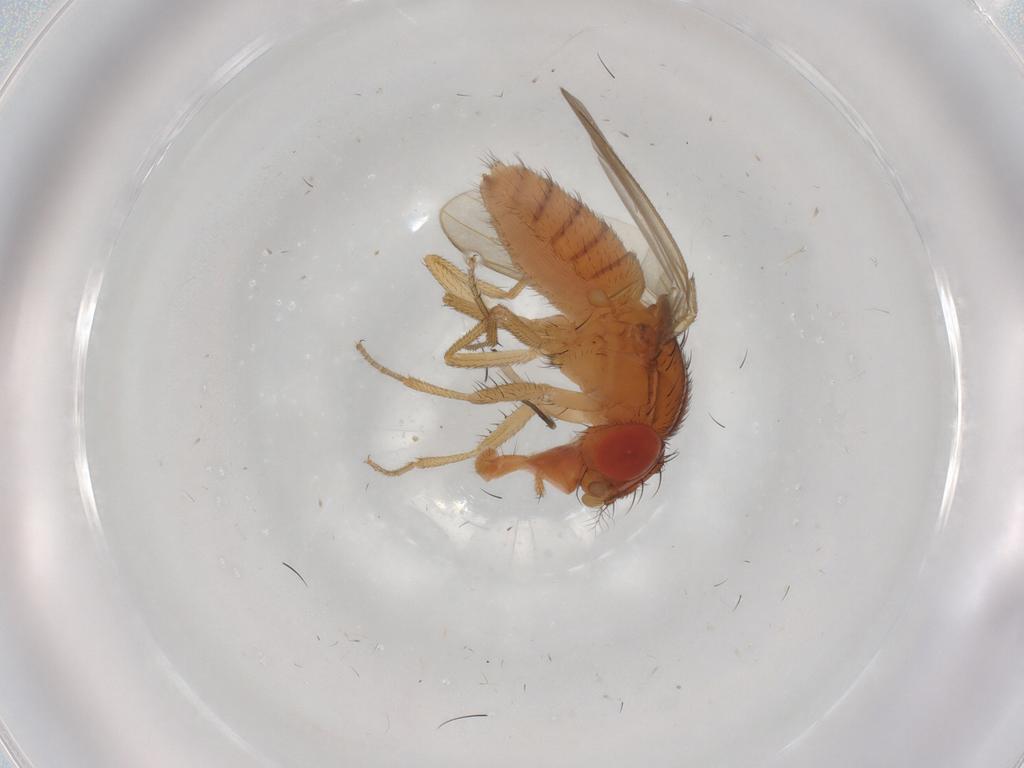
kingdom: Animalia
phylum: Arthropoda
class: Insecta
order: Diptera
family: Drosophilidae
